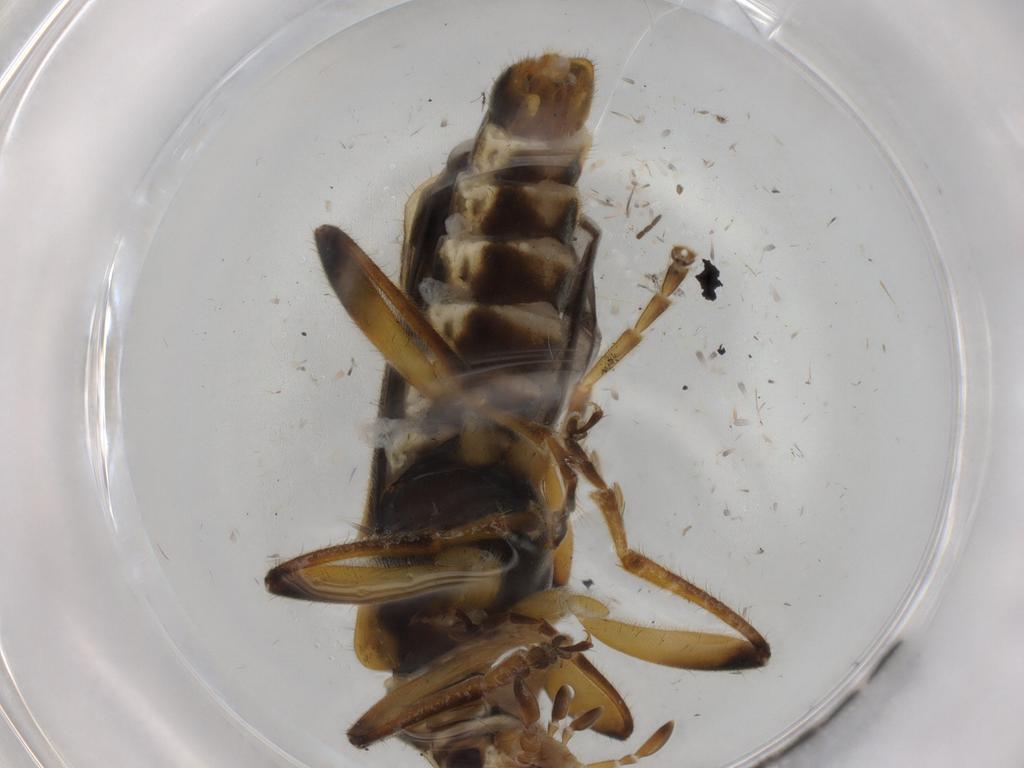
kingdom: Animalia
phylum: Arthropoda
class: Insecta
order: Coleoptera
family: Cantharidae
